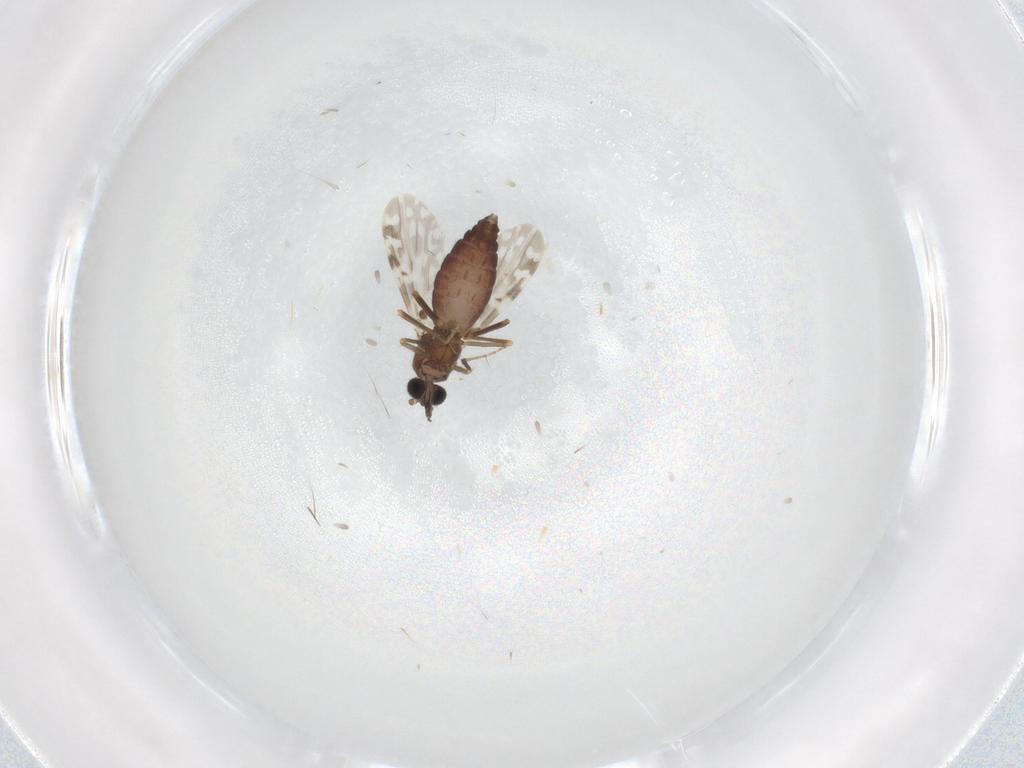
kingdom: Animalia
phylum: Arthropoda
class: Insecta
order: Diptera
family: Ceratopogonidae
